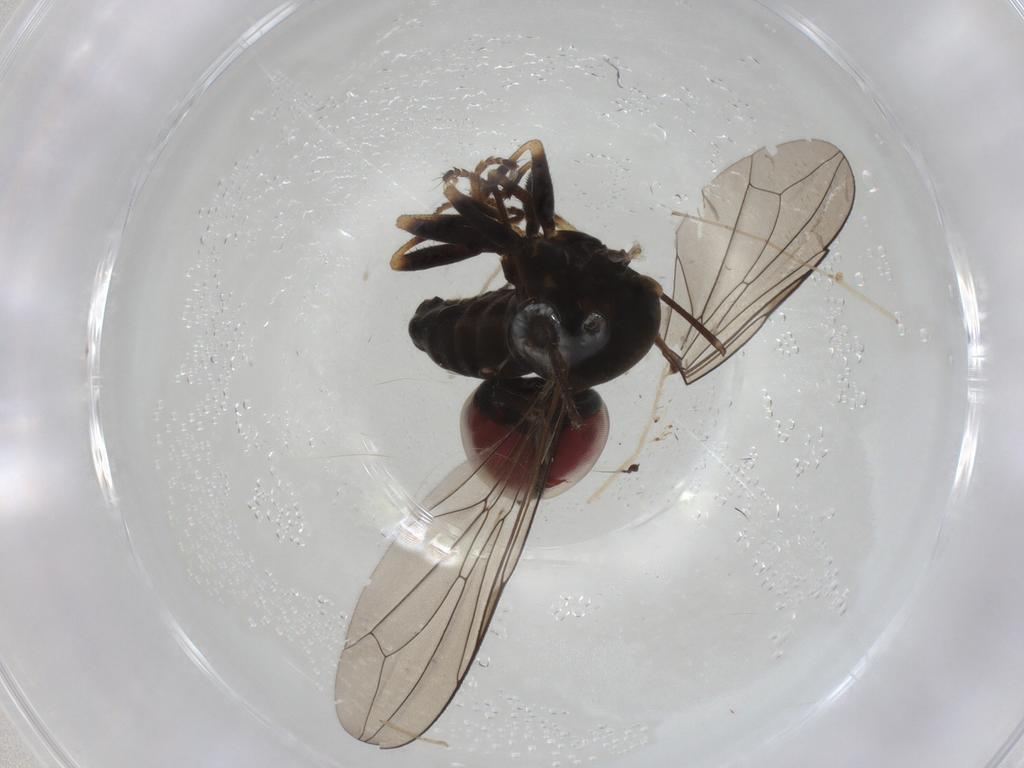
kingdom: Animalia
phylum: Arthropoda
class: Insecta
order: Diptera
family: Pipunculidae
